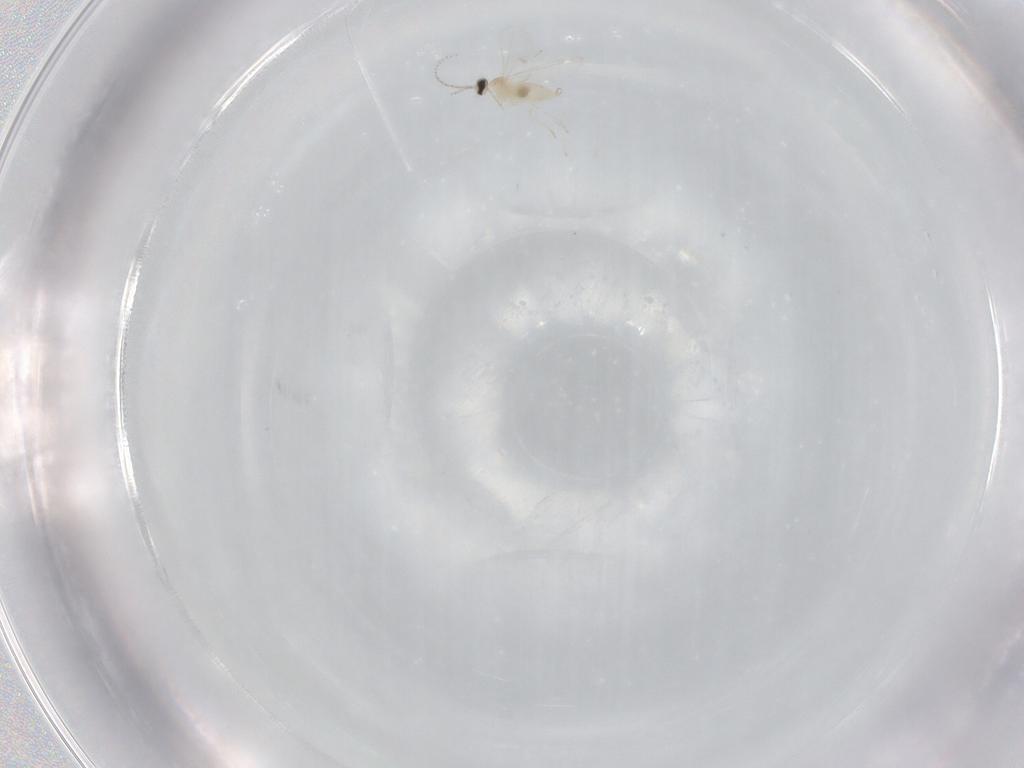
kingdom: Animalia
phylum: Arthropoda
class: Insecta
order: Diptera
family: Cecidomyiidae
